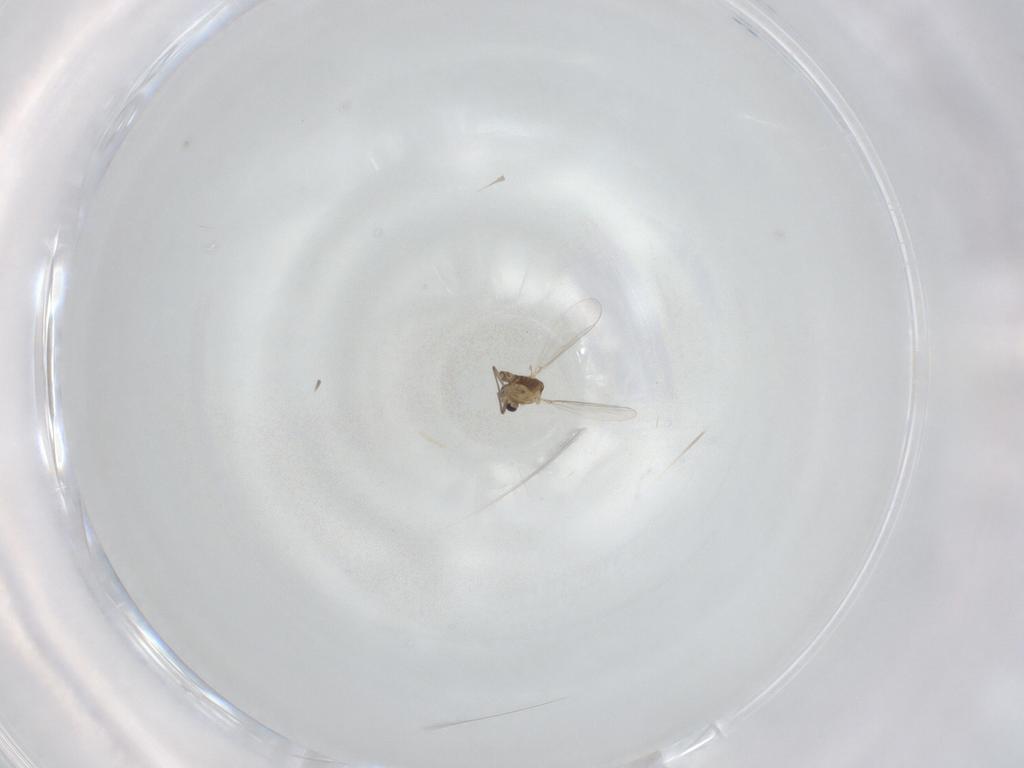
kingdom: Animalia
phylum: Arthropoda
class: Insecta
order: Diptera
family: Chironomidae
